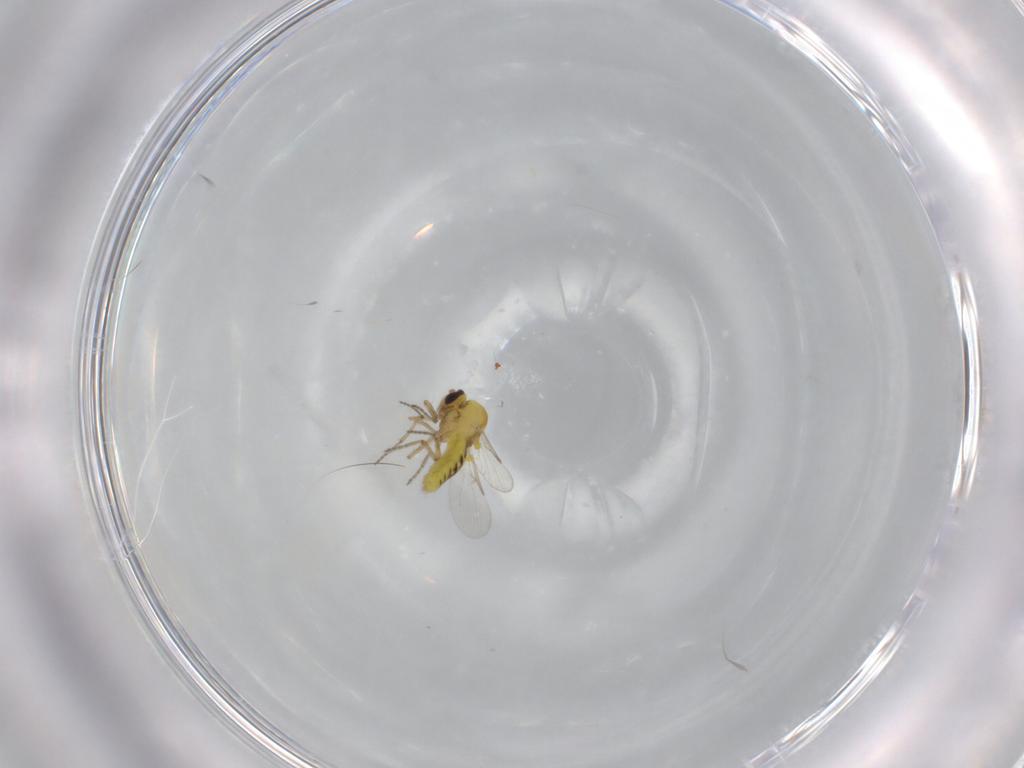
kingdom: Animalia
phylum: Arthropoda
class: Insecta
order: Diptera
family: Ceratopogonidae
